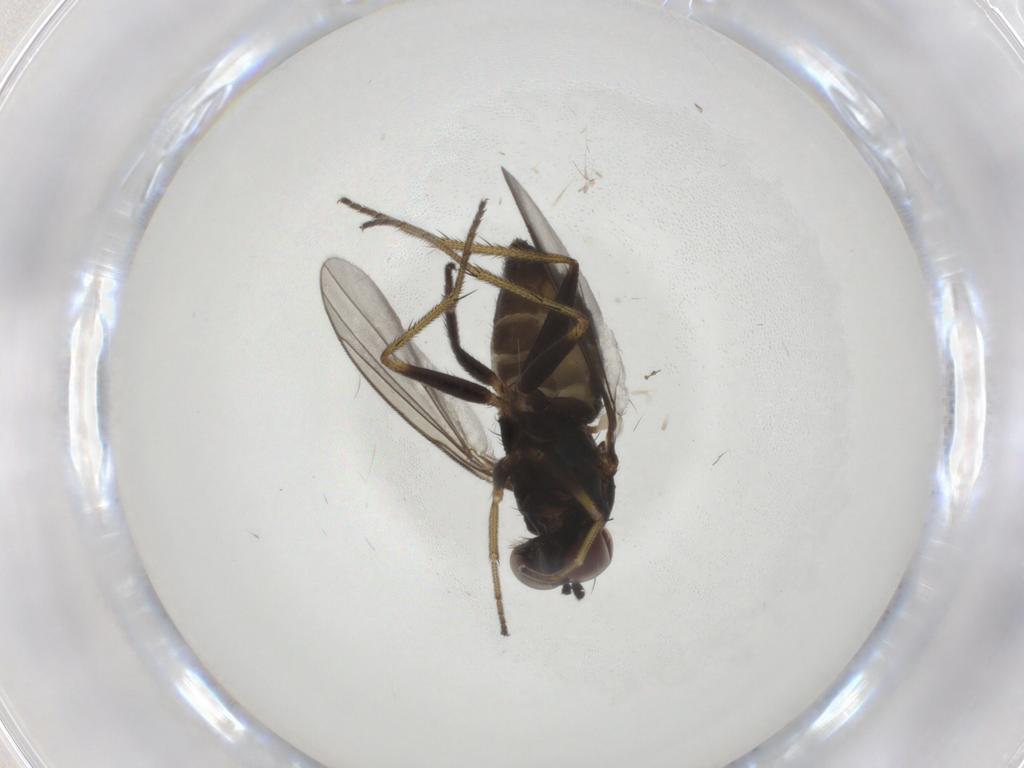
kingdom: Animalia
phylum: Arthropoda
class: Insecta
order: Diptera
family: Dolichopodidae
